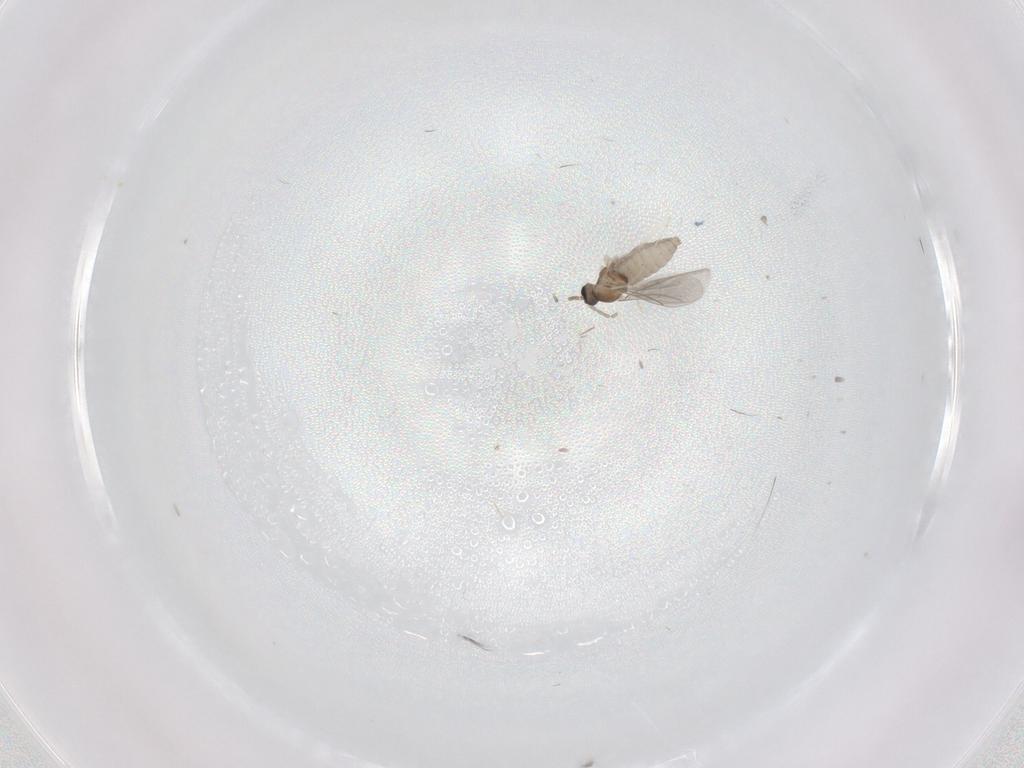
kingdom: Animalia
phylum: Arthropoda
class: Insecta
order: Diptera
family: Cecidomyiidae
